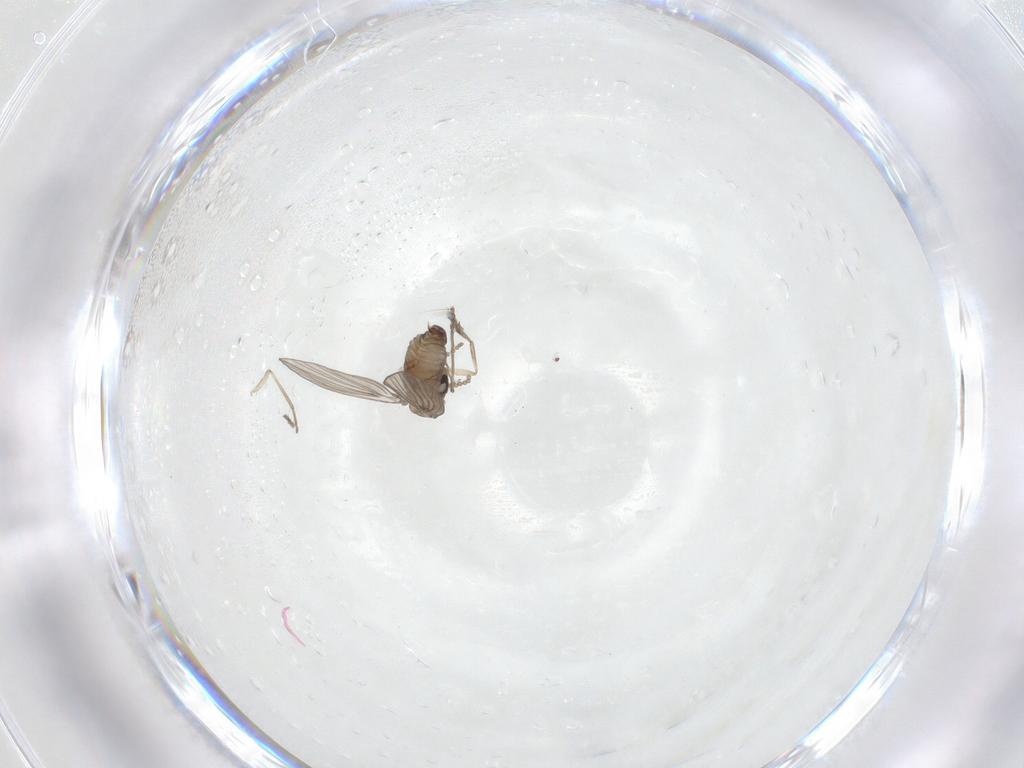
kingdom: Animalia
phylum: Arthropoda
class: Insecta
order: Diptera
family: Psychodidae
